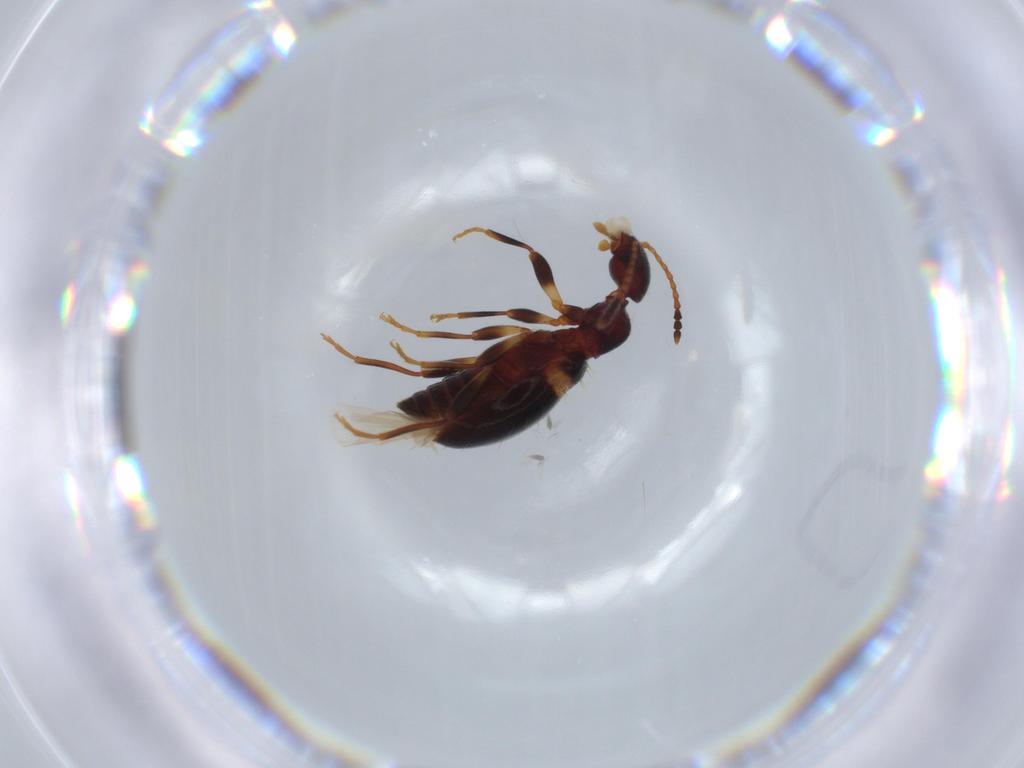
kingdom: Animalia
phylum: Arthropoda
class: Insecta
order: Coleoptera
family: Anthicidae
